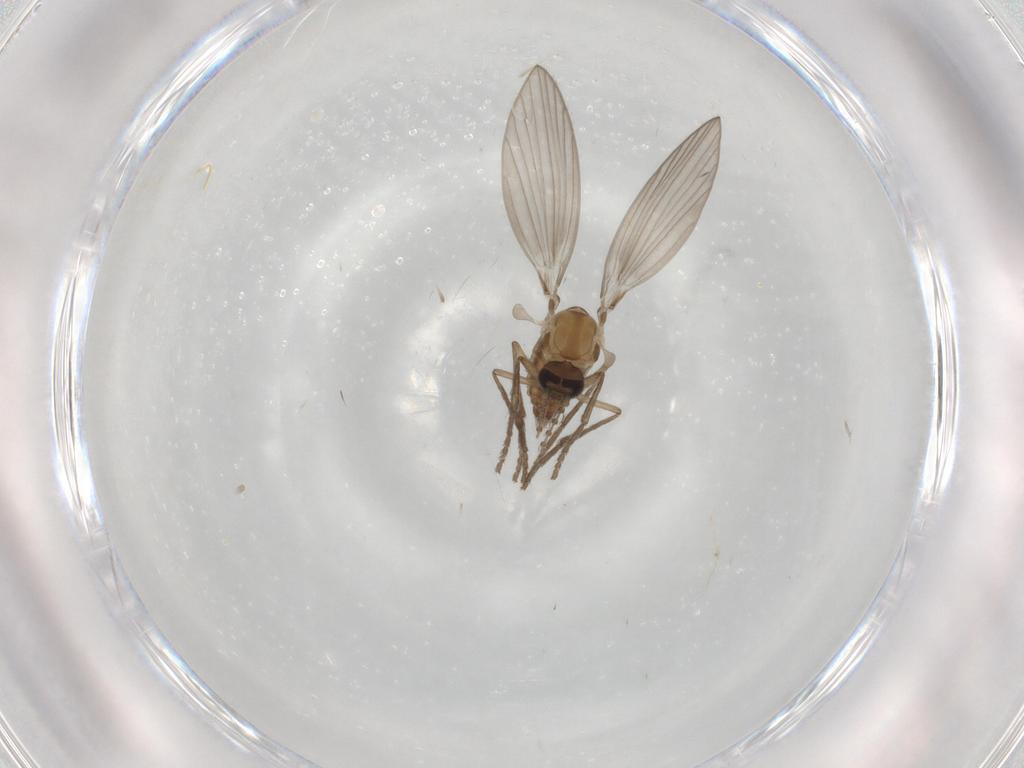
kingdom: Animalia
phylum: Arthropoda
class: Insecta
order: Diptera
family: Psychodidae
